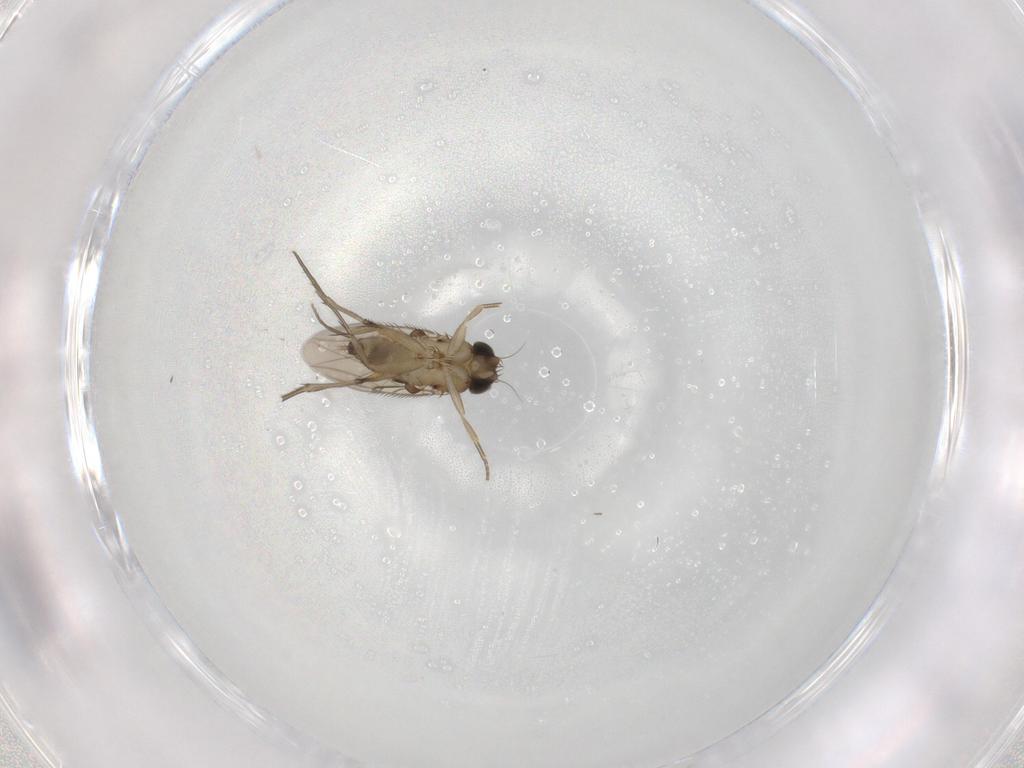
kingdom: Animalia
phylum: Arthropoda
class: Insecta
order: Diptera
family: Phoridae
